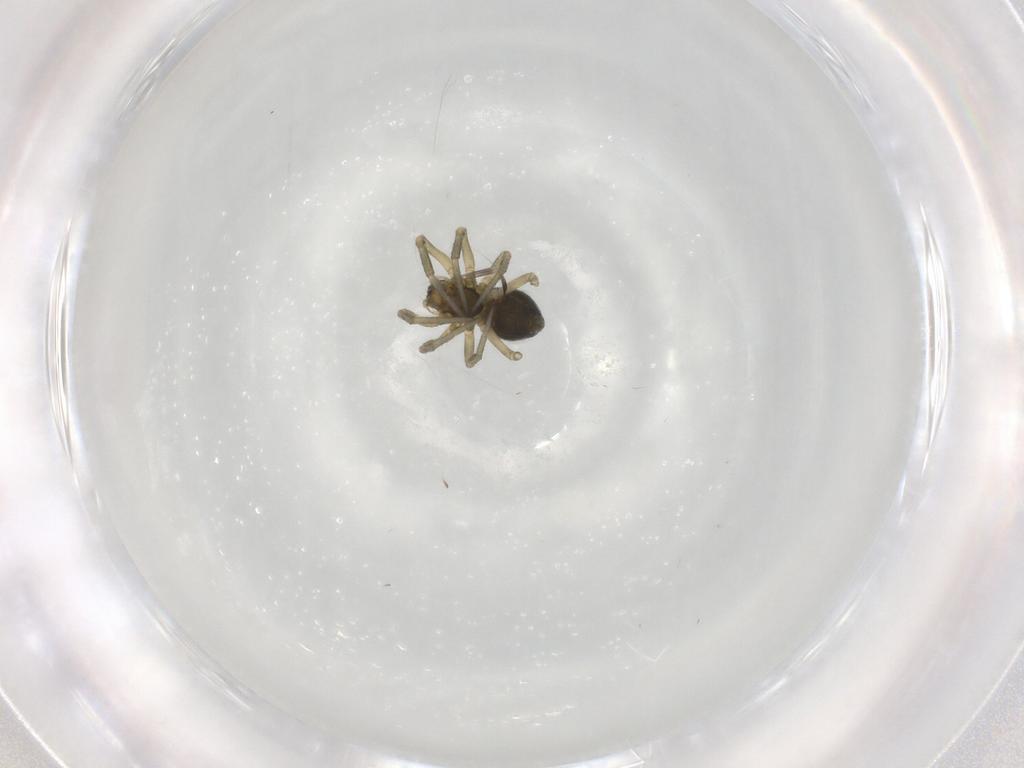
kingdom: Animalia
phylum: Arthropoda
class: Arachnida
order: Araneae
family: Linyphiidae
